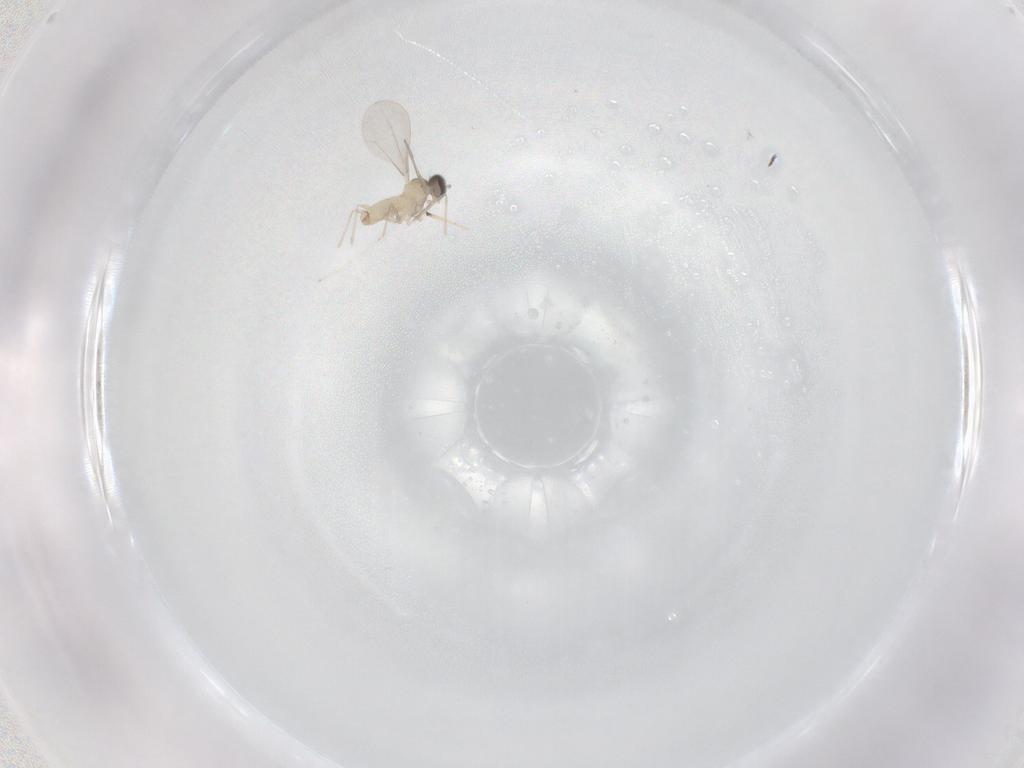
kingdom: Animalia
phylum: Arthropoda
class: Insecta
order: Diptera
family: Cecidomyiidae
